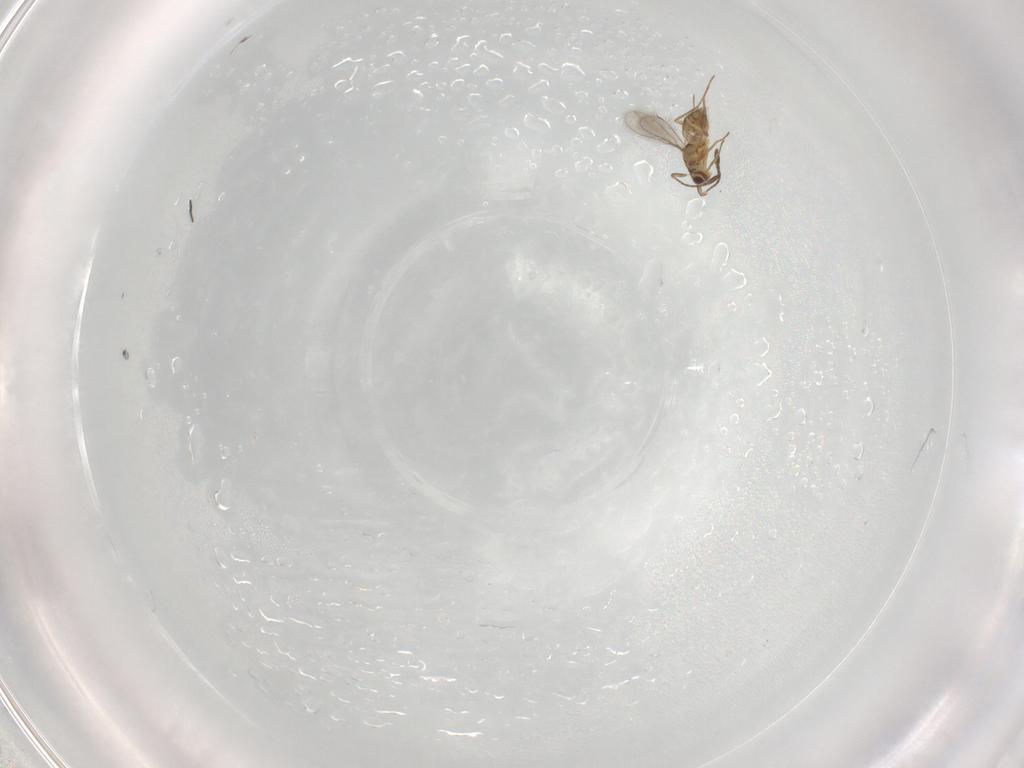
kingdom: Animalia
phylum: Arthropoda
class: Insecta
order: Hymenoptera
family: Mymaridae
